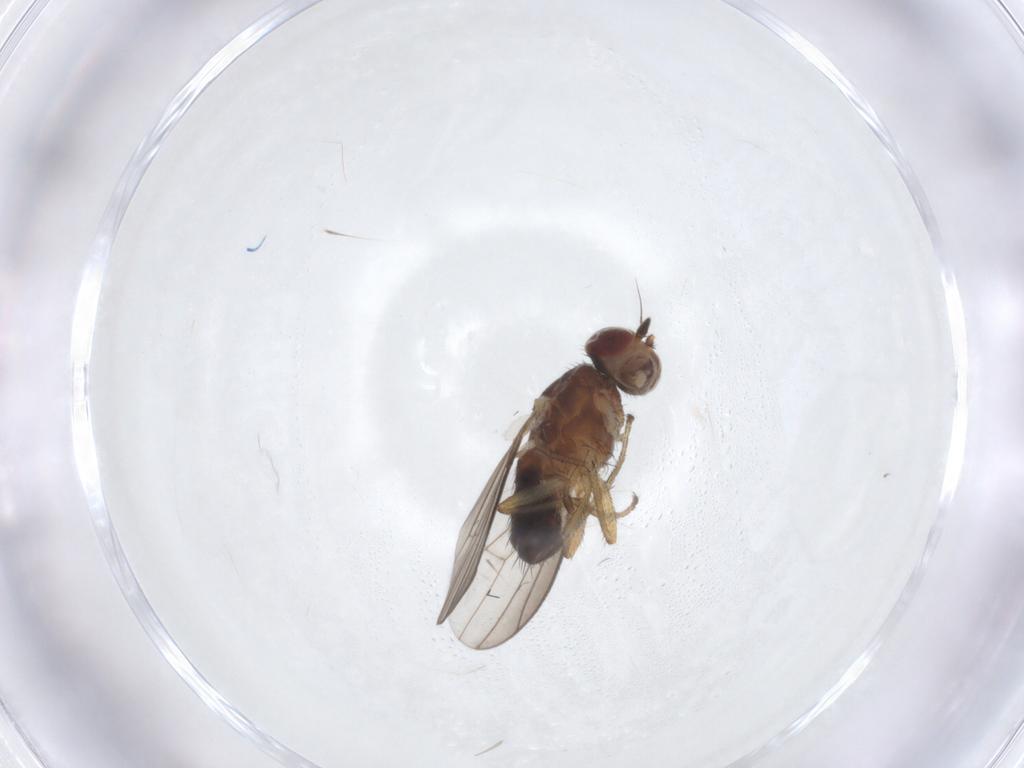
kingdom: Animalia
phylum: Arthropoda
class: Insecta
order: Diptera
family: Heleomyzidae
